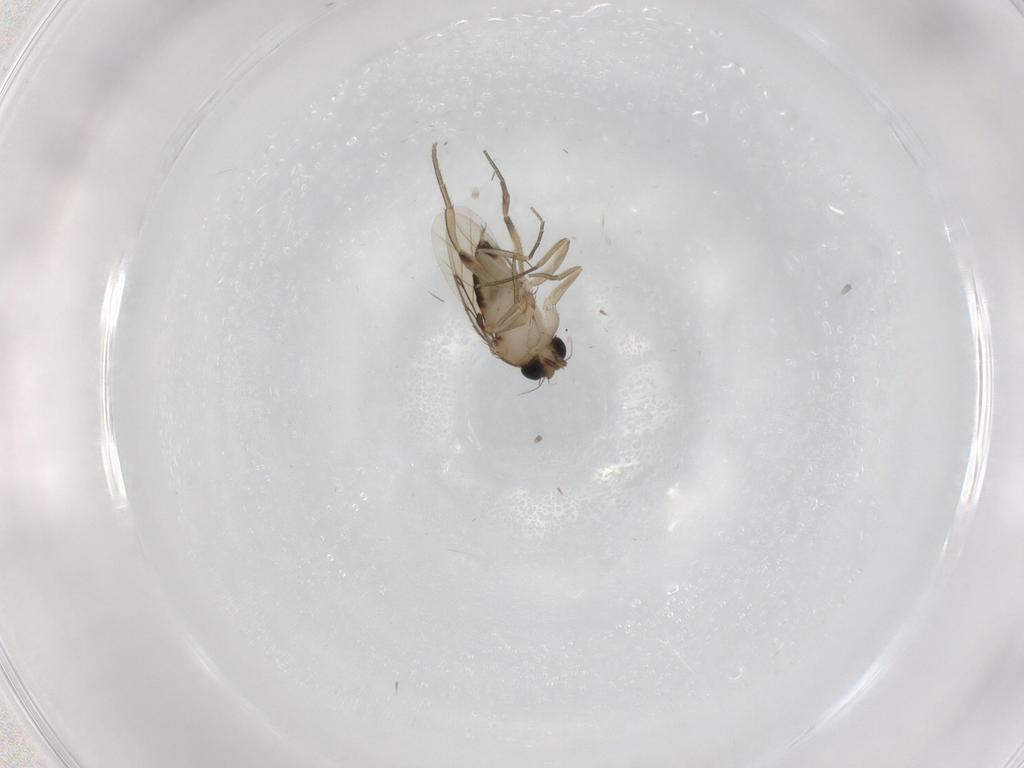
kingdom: Animalia
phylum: Arthropoda
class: Insecta
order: Diptera
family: Phoridae
